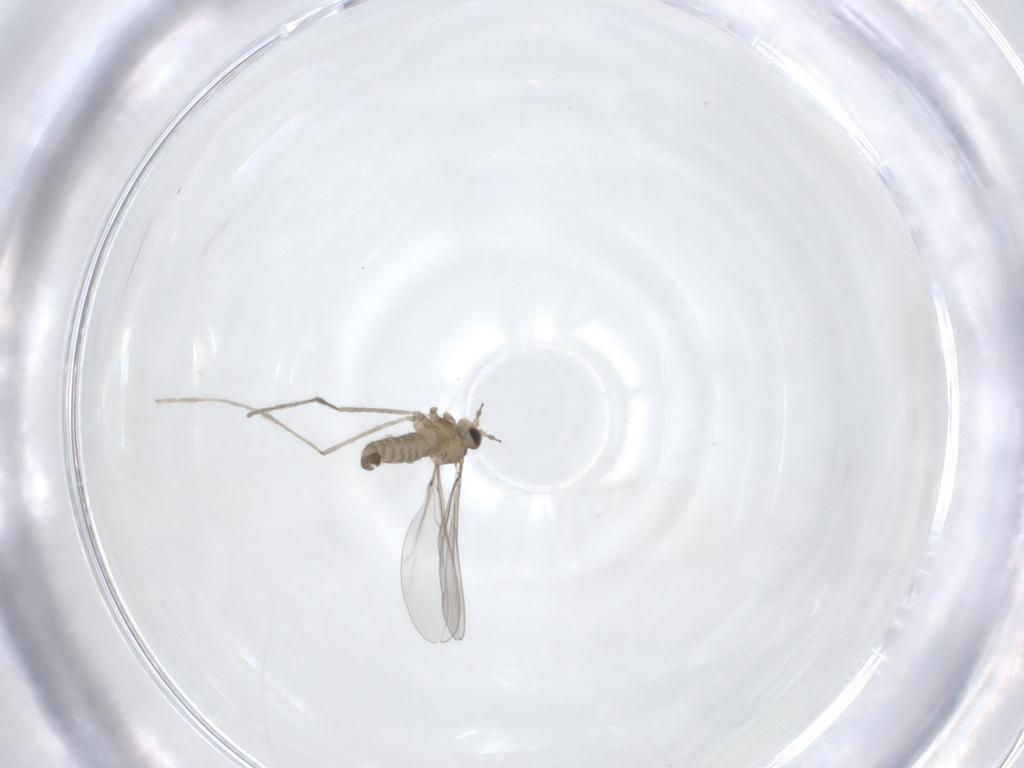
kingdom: Animalia
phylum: Arthropoda
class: Insecta
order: Diptera
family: Cecidomyiidae
